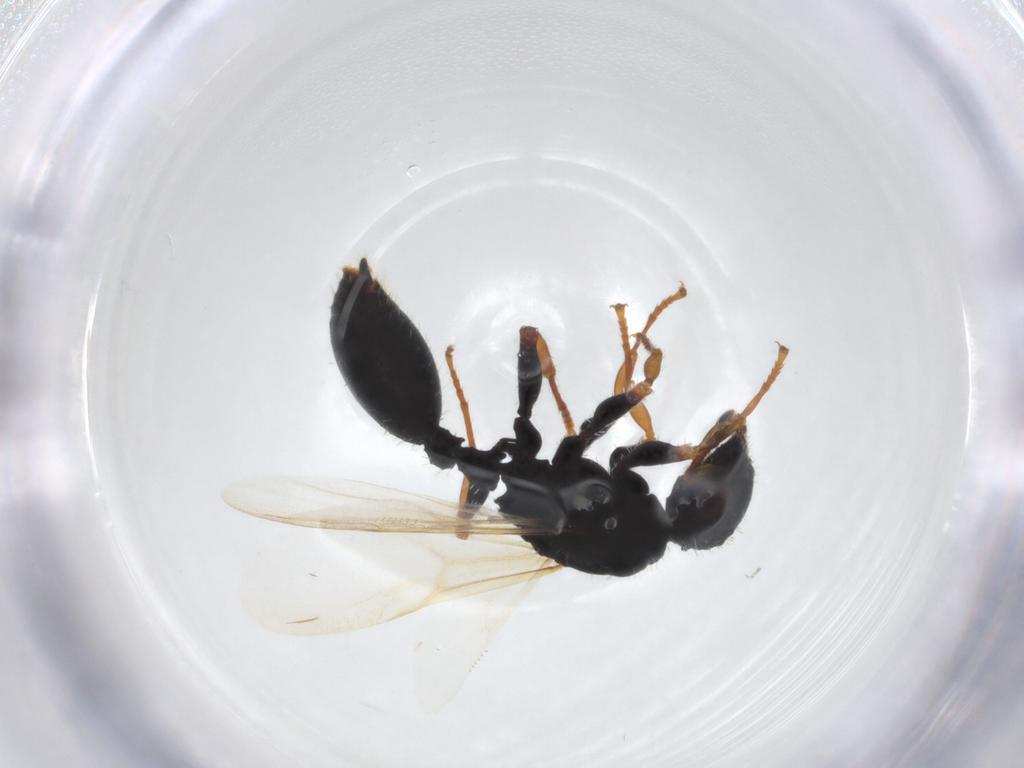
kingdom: Animalia
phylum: Arthropoda
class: Insecta
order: Hymenoptera
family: Formicidae
